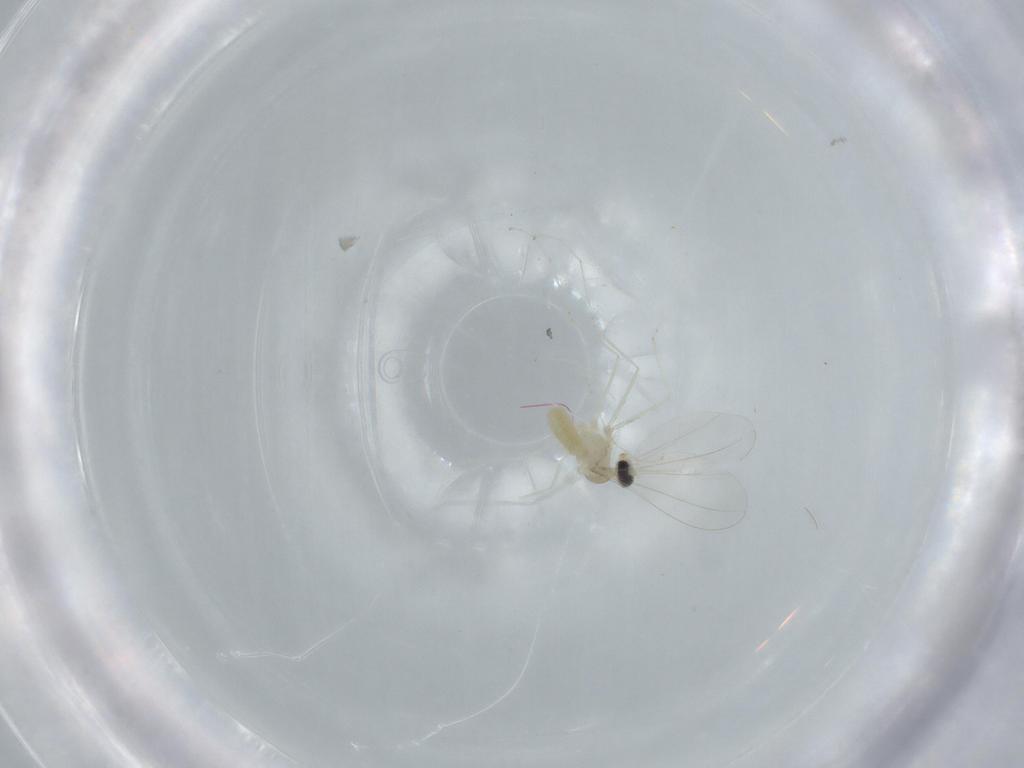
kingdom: Animalia
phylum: Arthropoda
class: Insecta
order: Diptera
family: Cecidomyiidae
